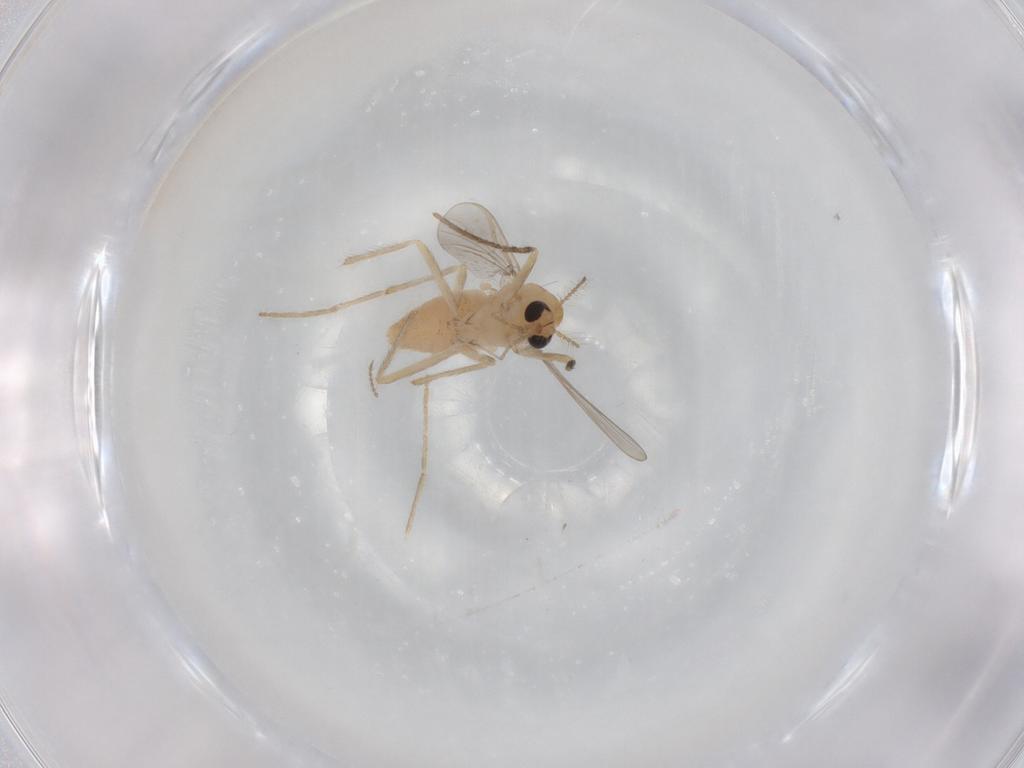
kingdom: Animalia
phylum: Arthropoda
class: Insecta
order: Diptera
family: Chironomidae
